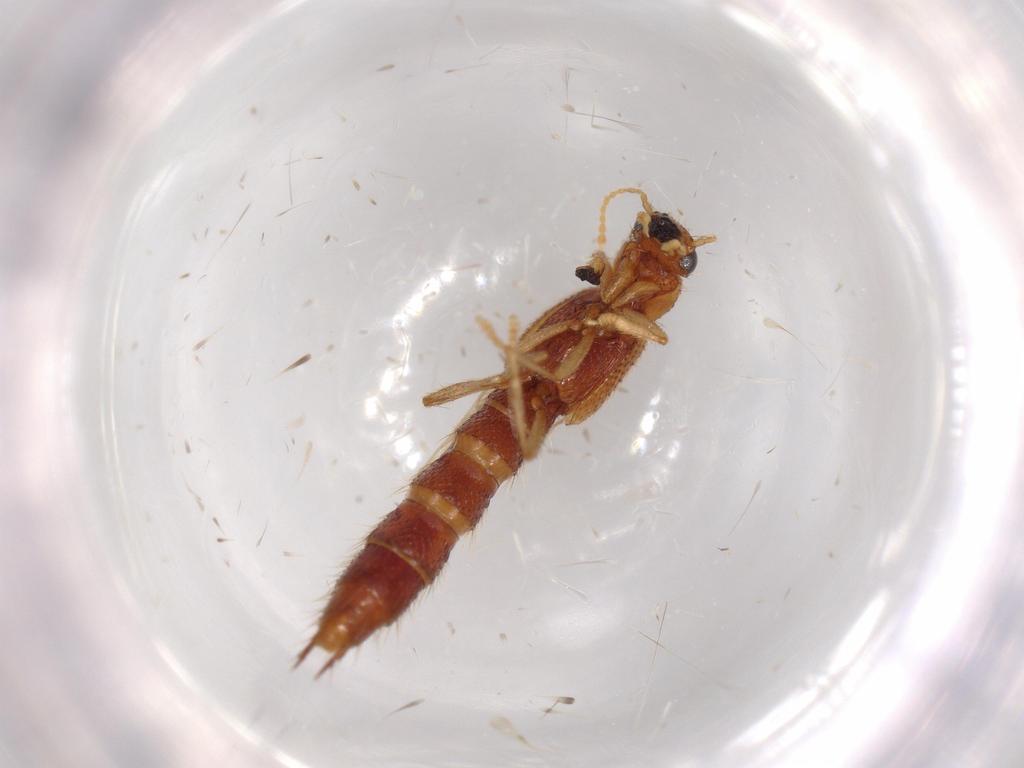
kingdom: Animalia
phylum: Arthropoda
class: Insecta
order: Coleoptera
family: Staphylinidae
